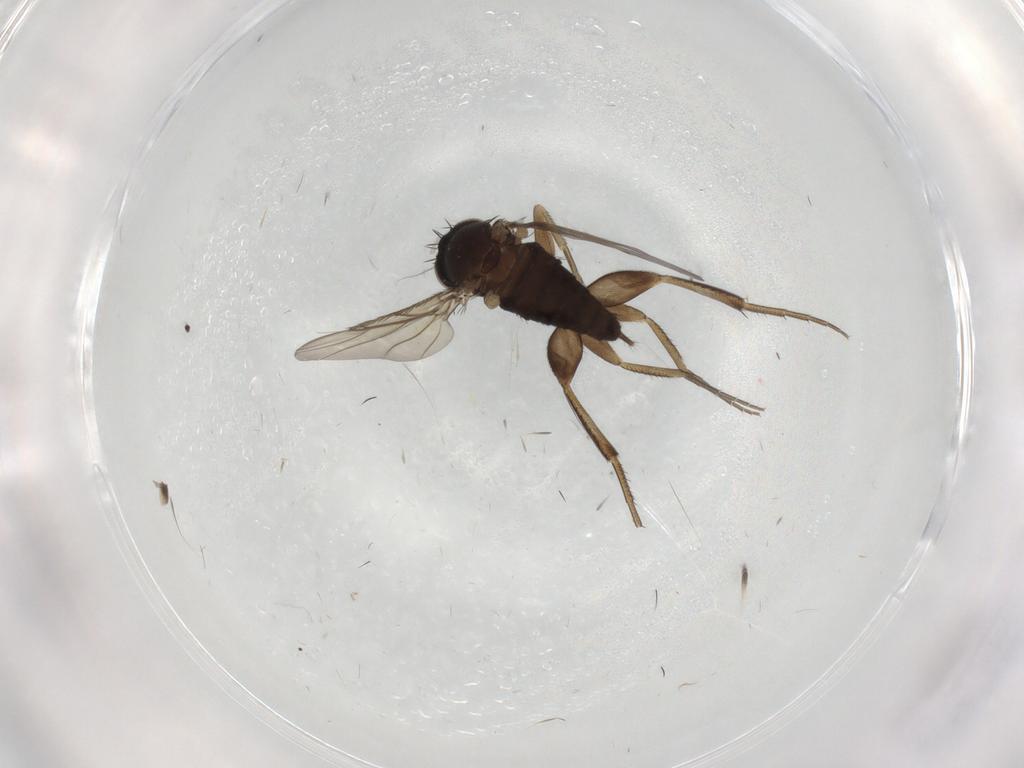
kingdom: Animalia
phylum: Arthropoda
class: Insecta
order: Diptera
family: Phoridae
